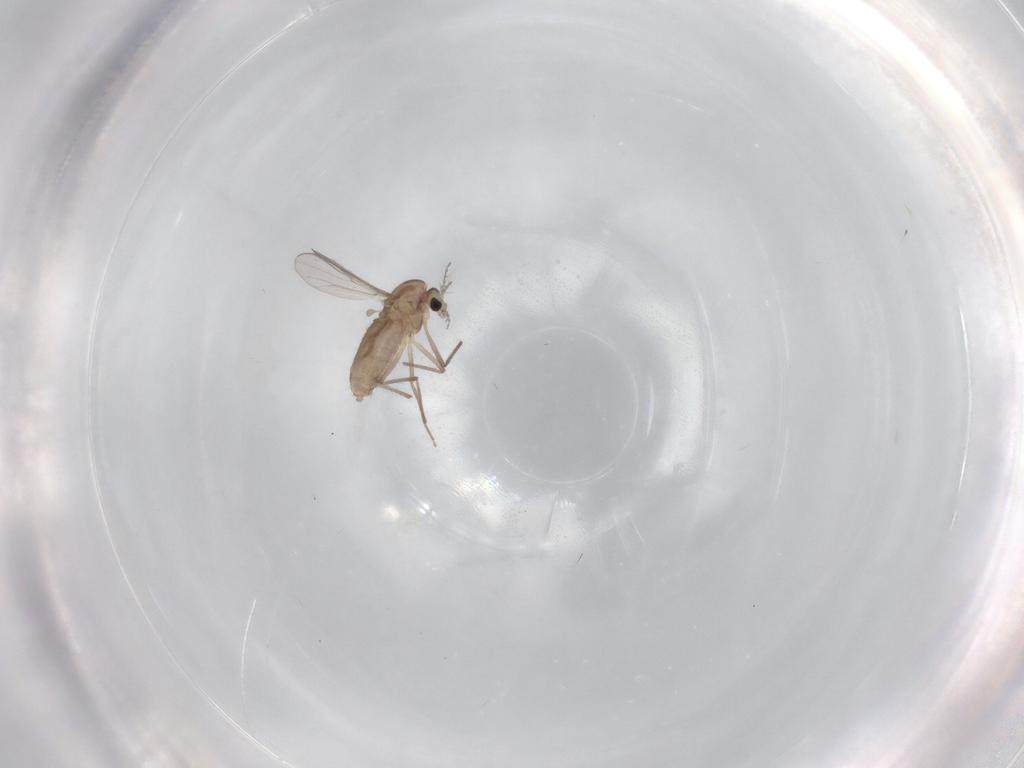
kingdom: Animalia
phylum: Arthropoda
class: Insecta
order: Diptera
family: Chironomidae
